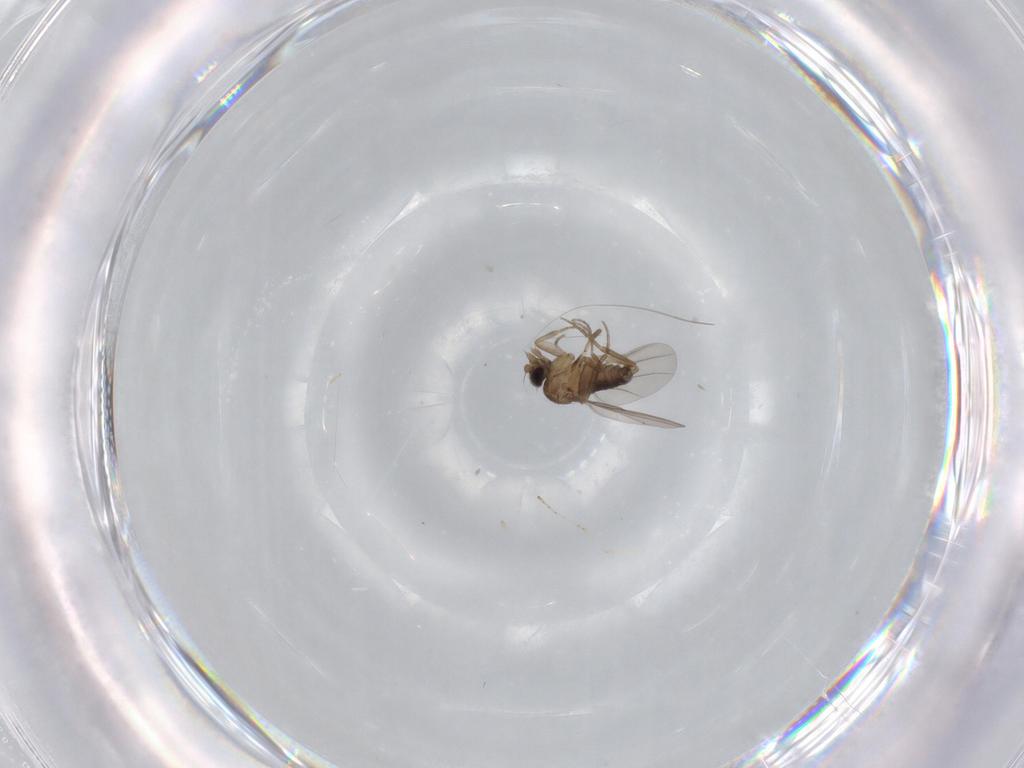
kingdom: Animalia
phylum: Arthropoda
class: Insecta
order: Diptera
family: Phoridae
